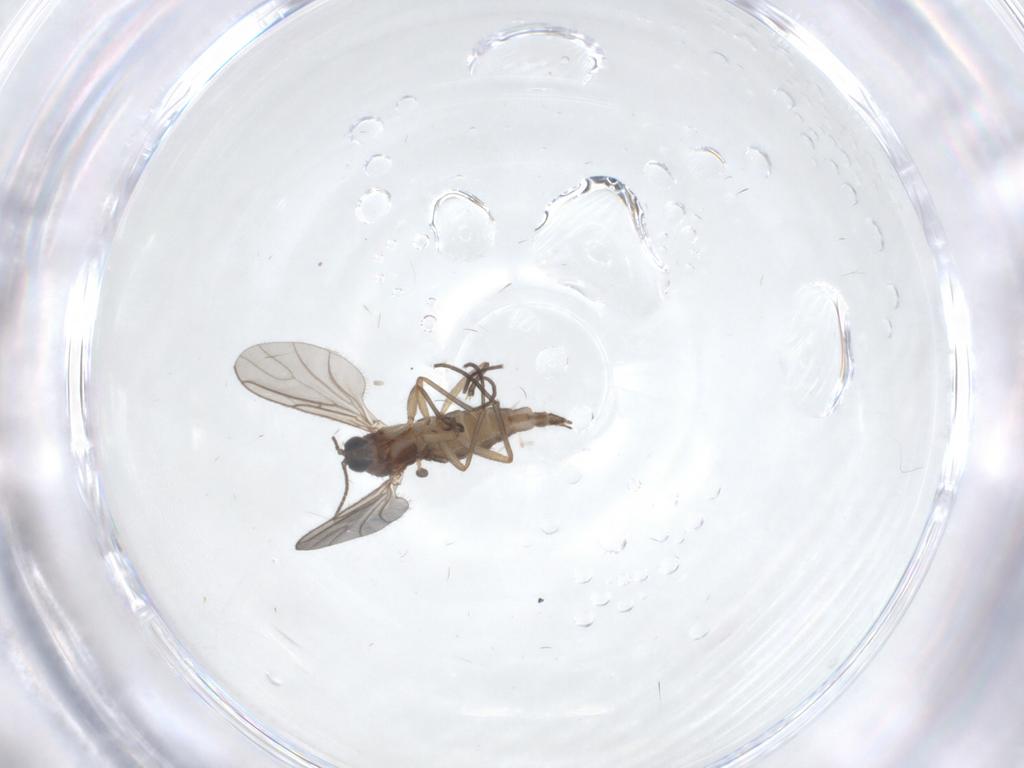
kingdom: Animalia
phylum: Arthropoda
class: Insecta
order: Diptera
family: Sciaridae
